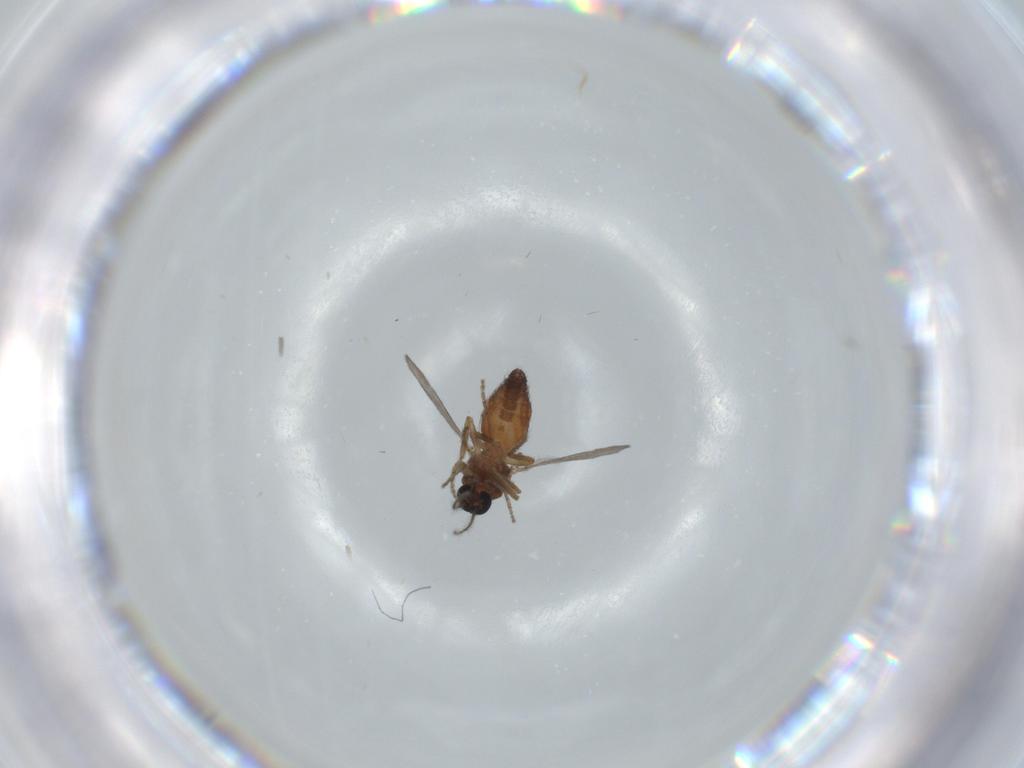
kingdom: Animalia
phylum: Arthropoda
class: Insecta
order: Diptera
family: Ceratopogonidae
